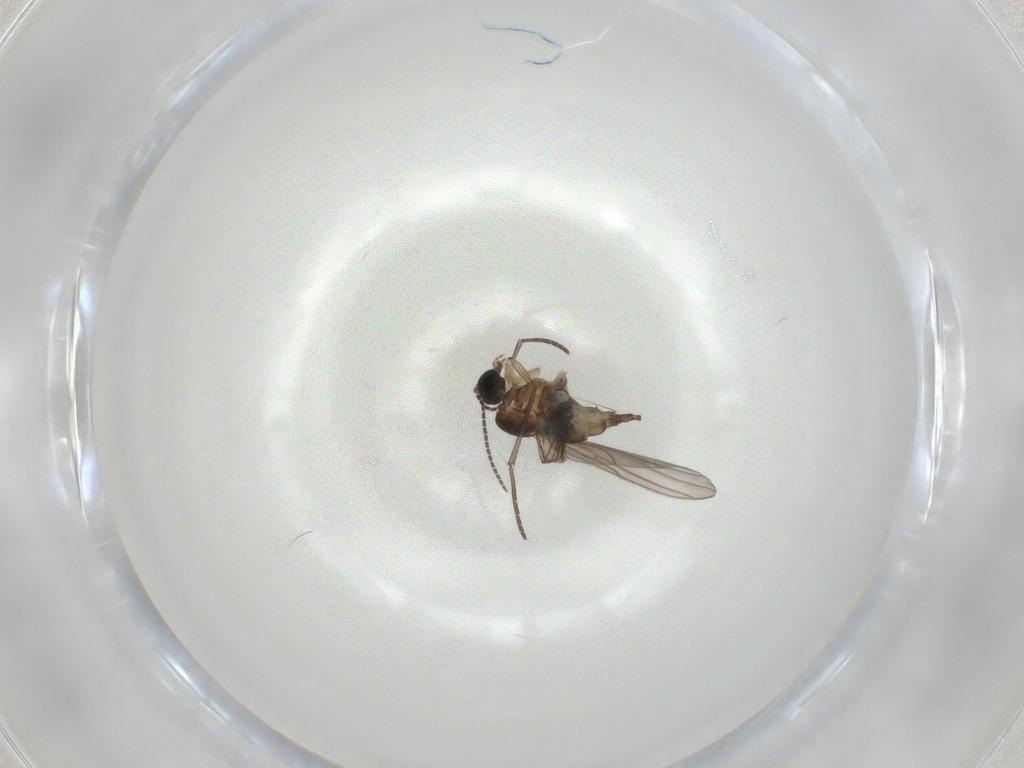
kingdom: Animalia
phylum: Arthropoda
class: Insecta
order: Diptera
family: Sciaridae
